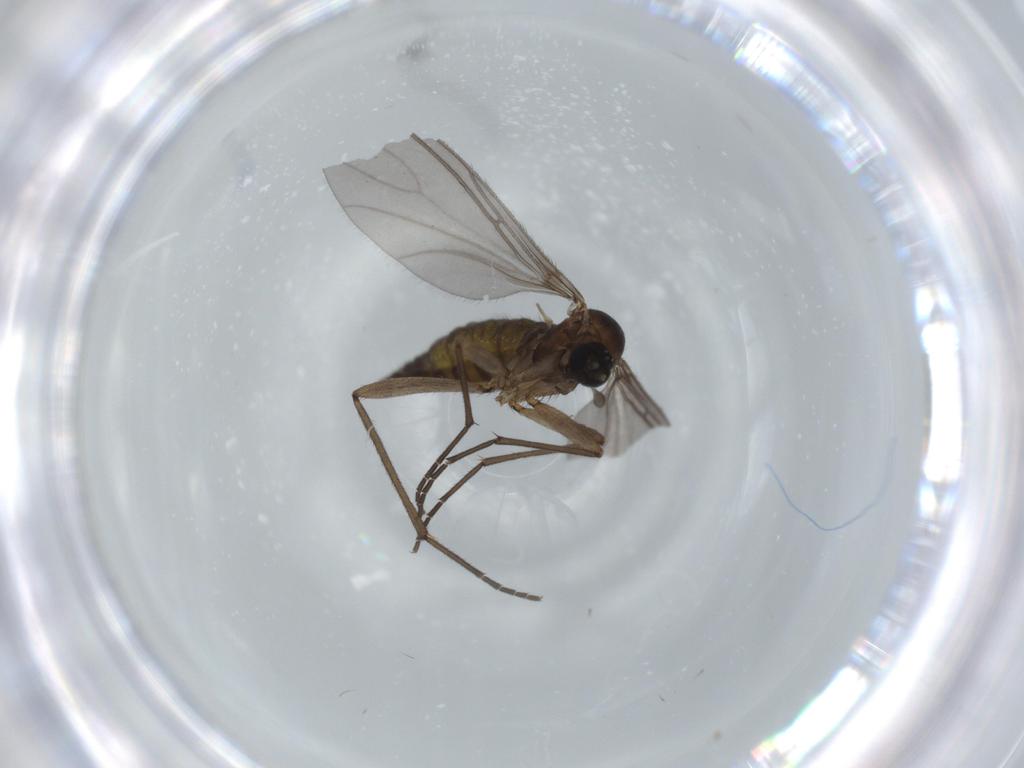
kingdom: Animalia
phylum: Arthropoda
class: Insecta
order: Diptera
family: Sciaridae
